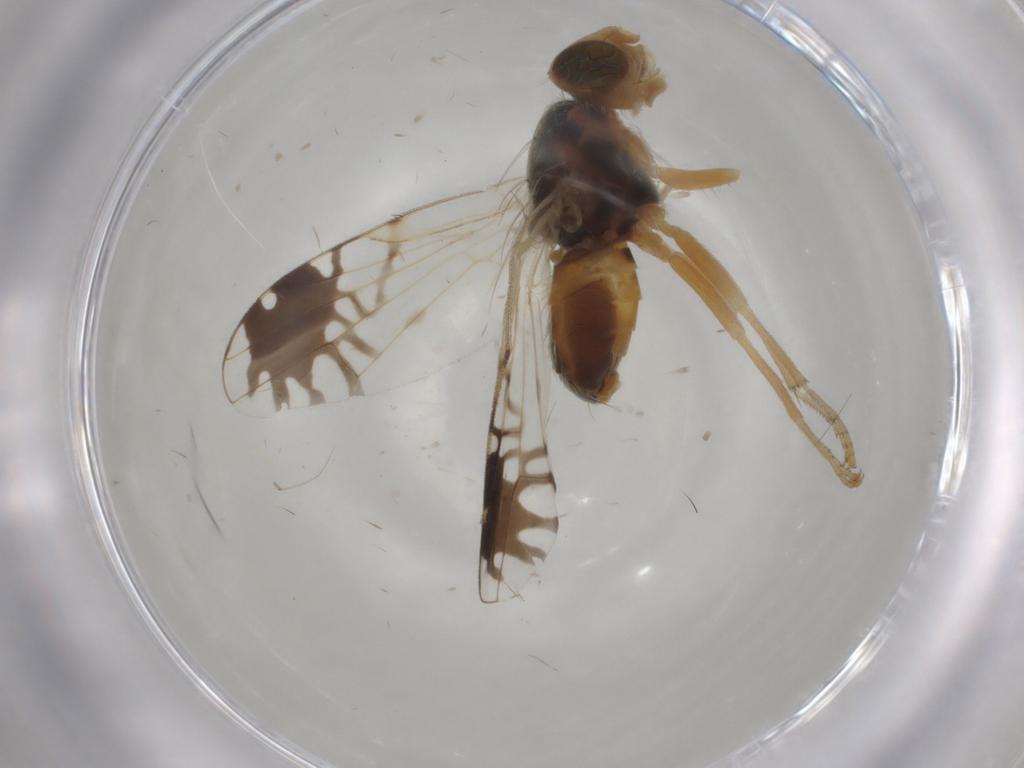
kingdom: Animalia
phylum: Arthropoda
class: Insecta
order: Diptera
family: Tephritidae
